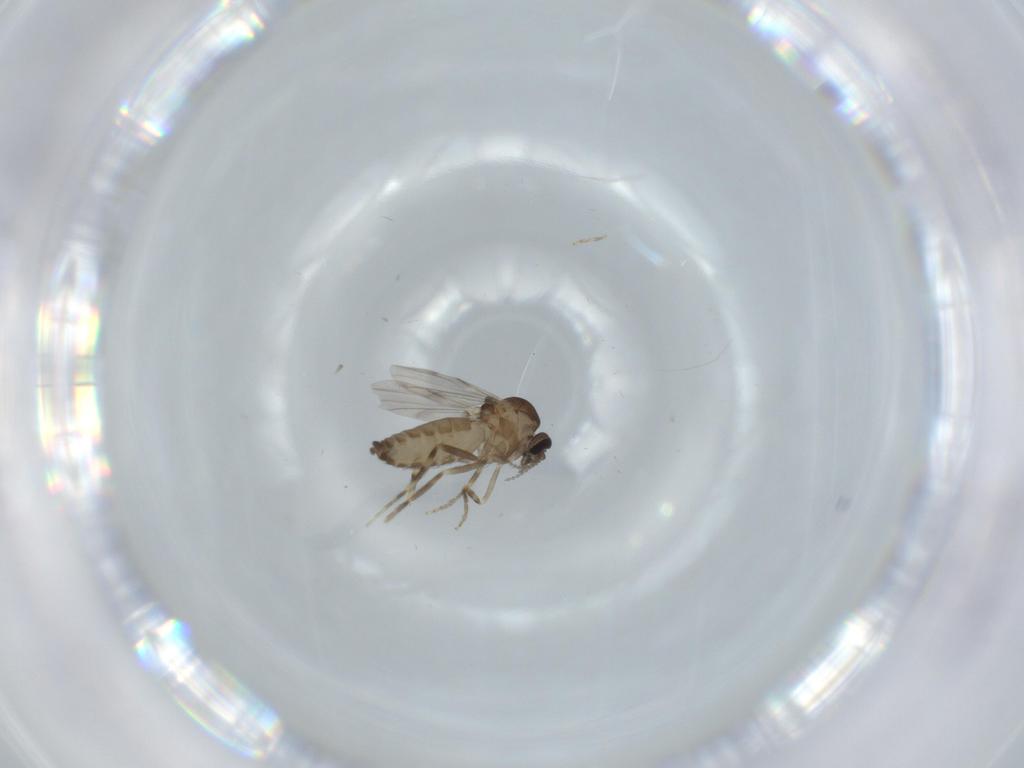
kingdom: Animalia
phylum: Arthropoda
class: Insecta
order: Diptera
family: Ceratopogonidae
